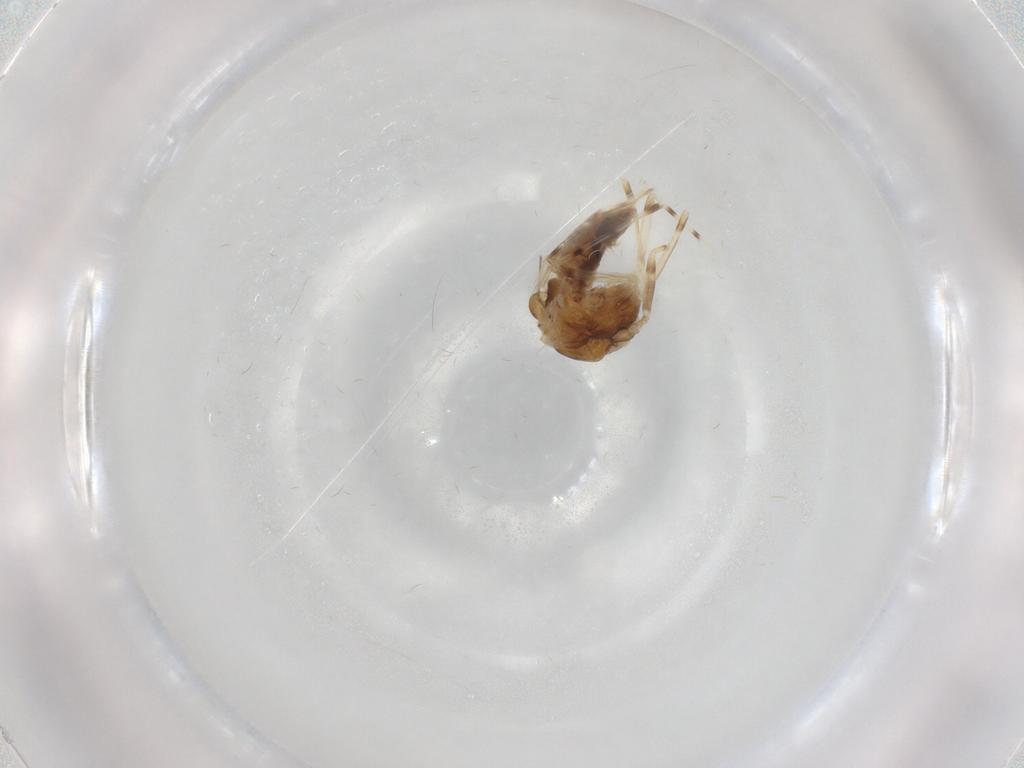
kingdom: Animalia
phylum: Arthropoda
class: Insecta
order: Diptera
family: Chironomidae
